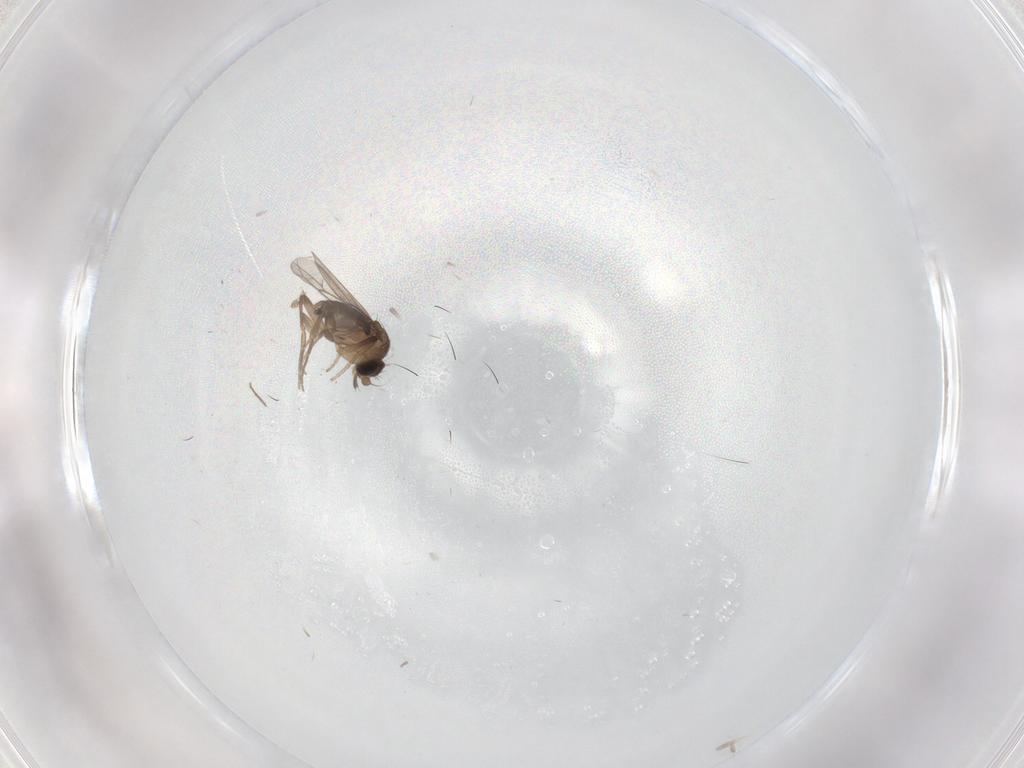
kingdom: Animalia
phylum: Arthropoda
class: Insecta
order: Diptera
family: Chironomidae
